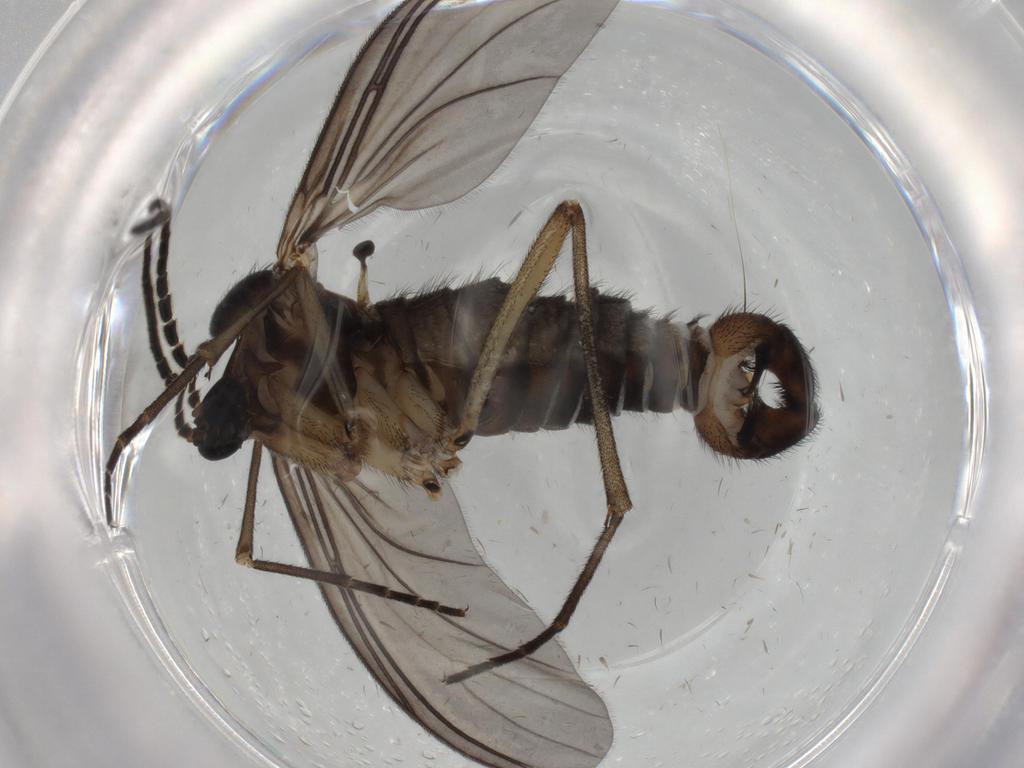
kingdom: Animalia
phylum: Arthropoda
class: Insecta
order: Diptera
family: Sciaridae
